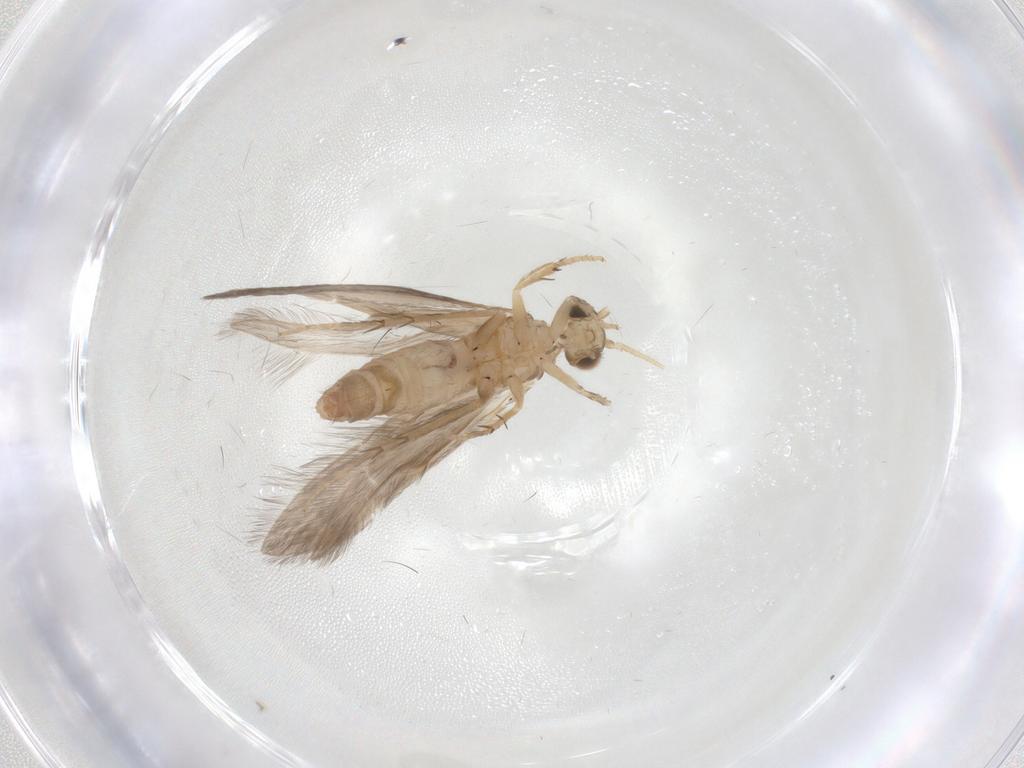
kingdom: Animalia
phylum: Arthropoda
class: Insecta
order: Trichoptera
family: Glossosomatidae
